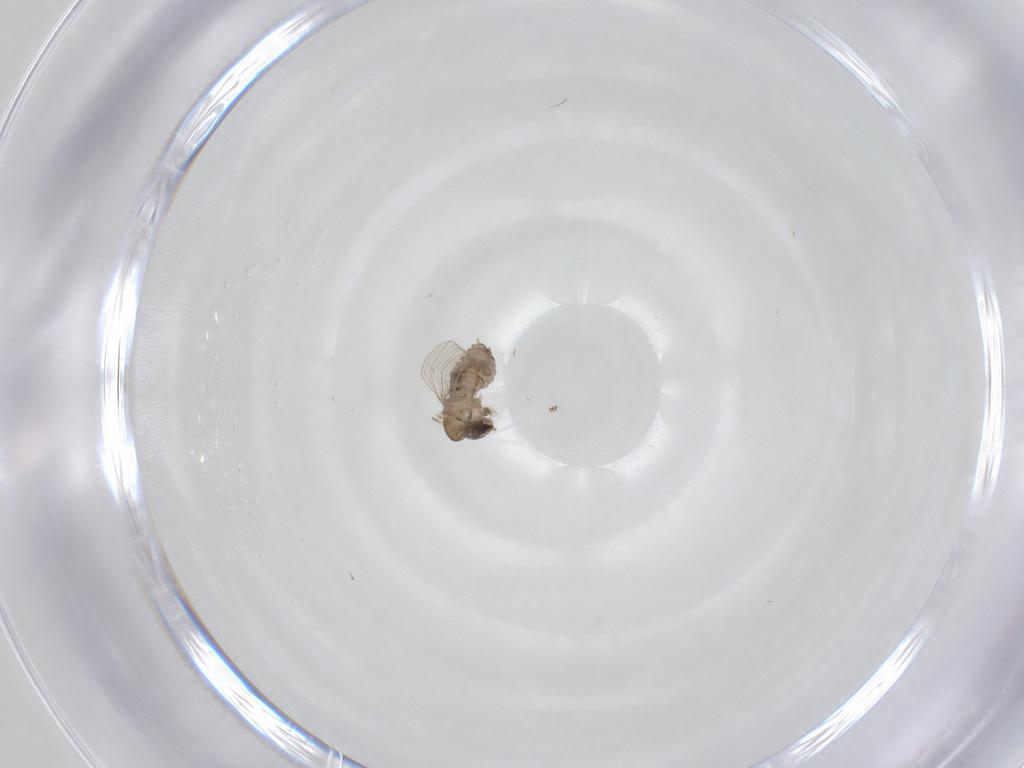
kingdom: Animalia
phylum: Arthropoda
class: Insecta
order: Diptera
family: Psychodidae
